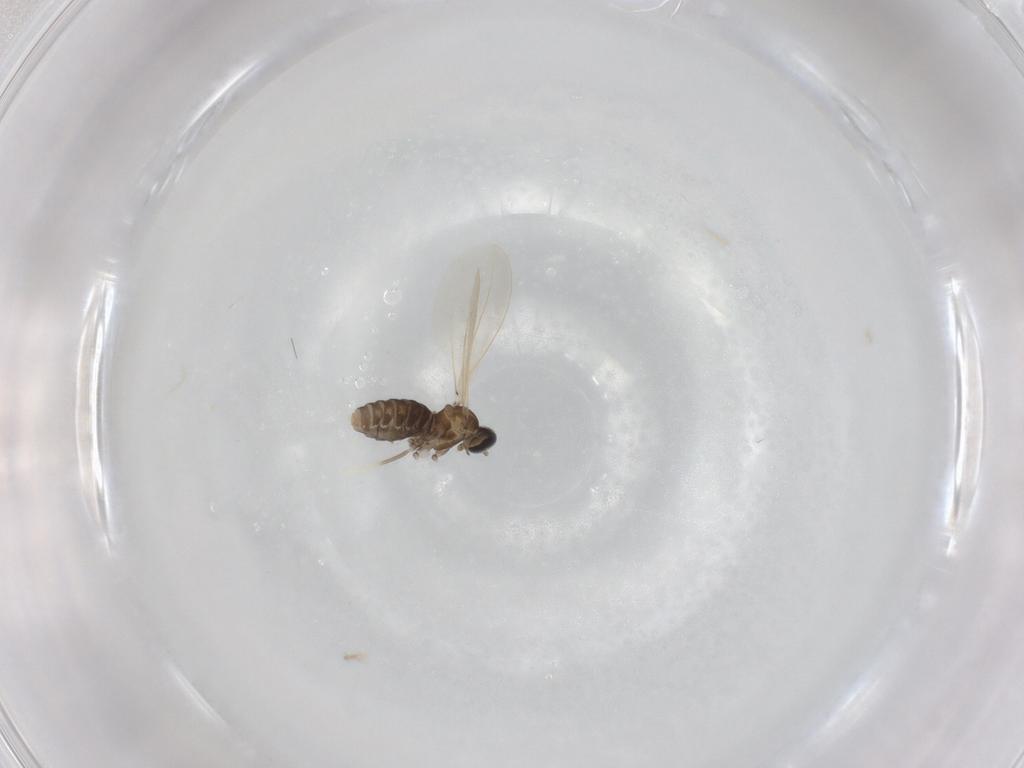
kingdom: Animalia
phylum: Arthropoda
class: Insecta
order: Diptera
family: Cecidomyiidae
